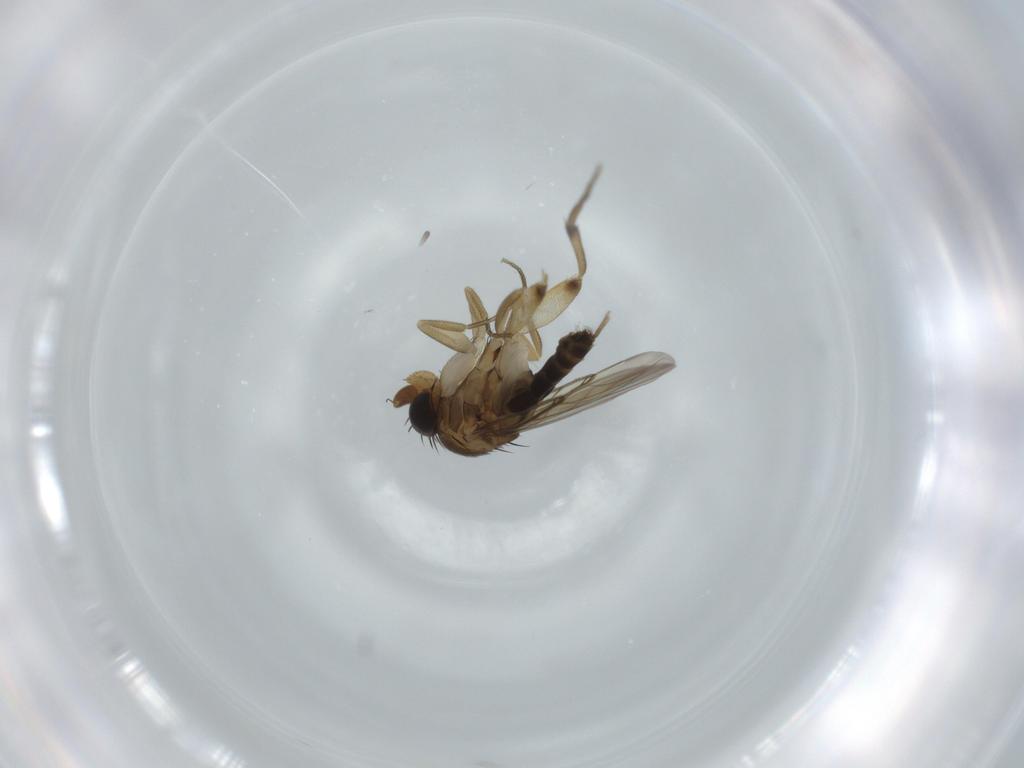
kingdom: Animalia
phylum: Arthropoda
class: Insecta
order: Diptera
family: Phoridae
